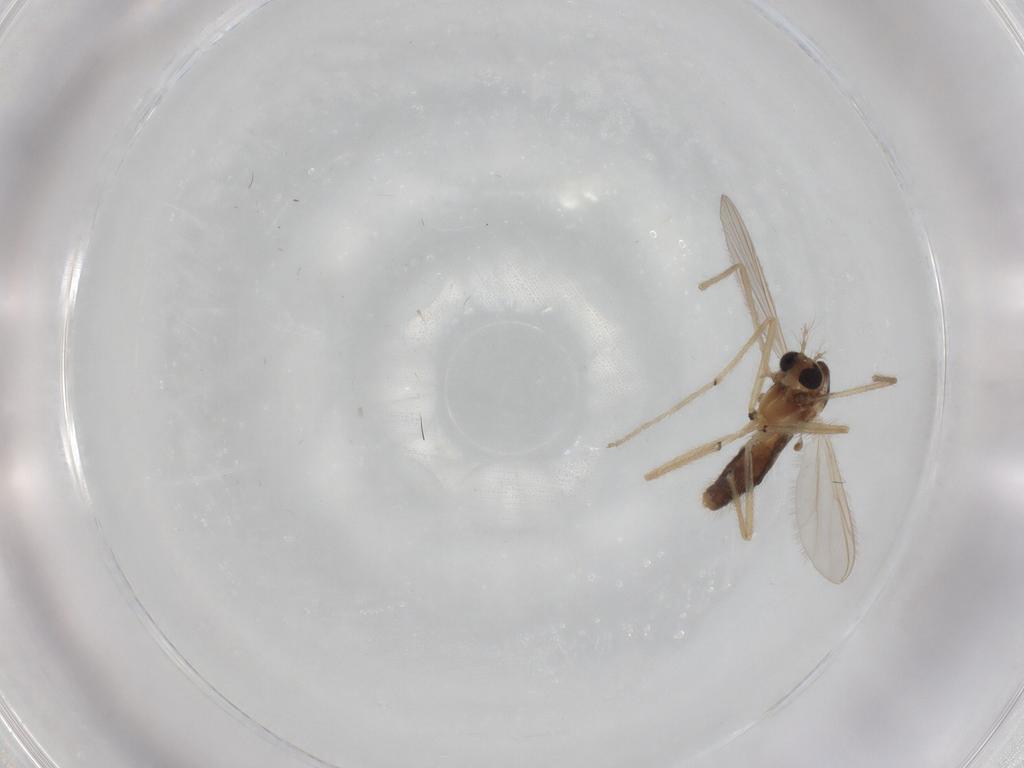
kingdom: Animalia
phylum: Arthropoda
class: Insecta
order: Diptera
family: Chironomidae
